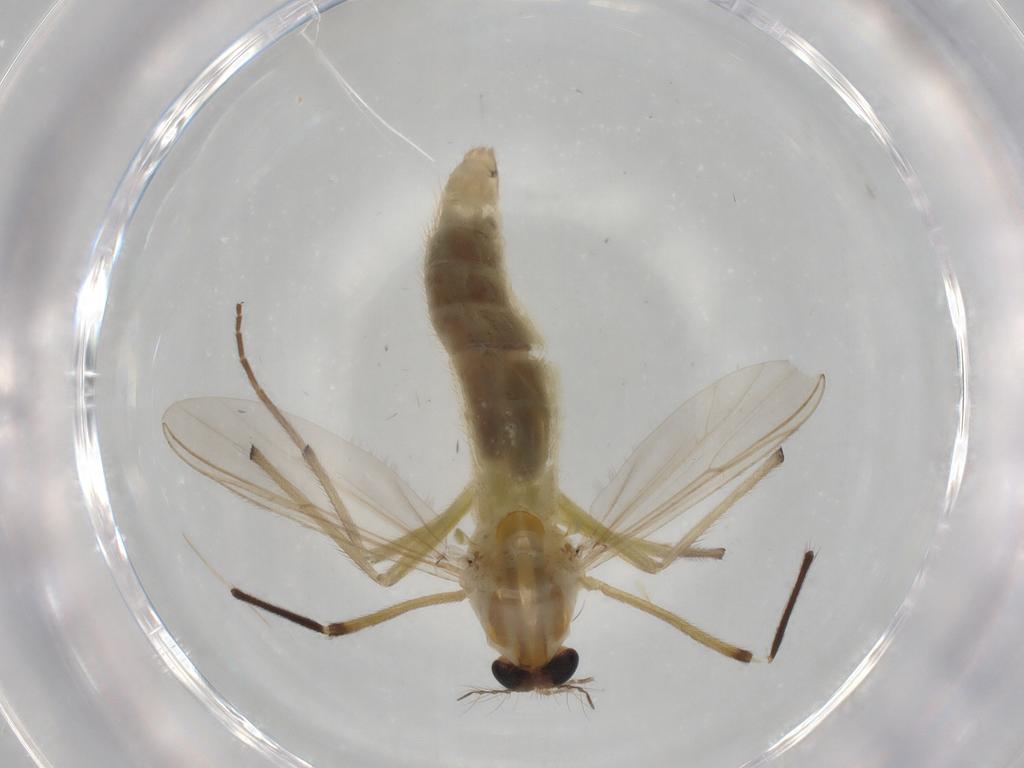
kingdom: Animalia
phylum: Arthropoda
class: Insecta
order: Diptera
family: Ceratopogonidae
